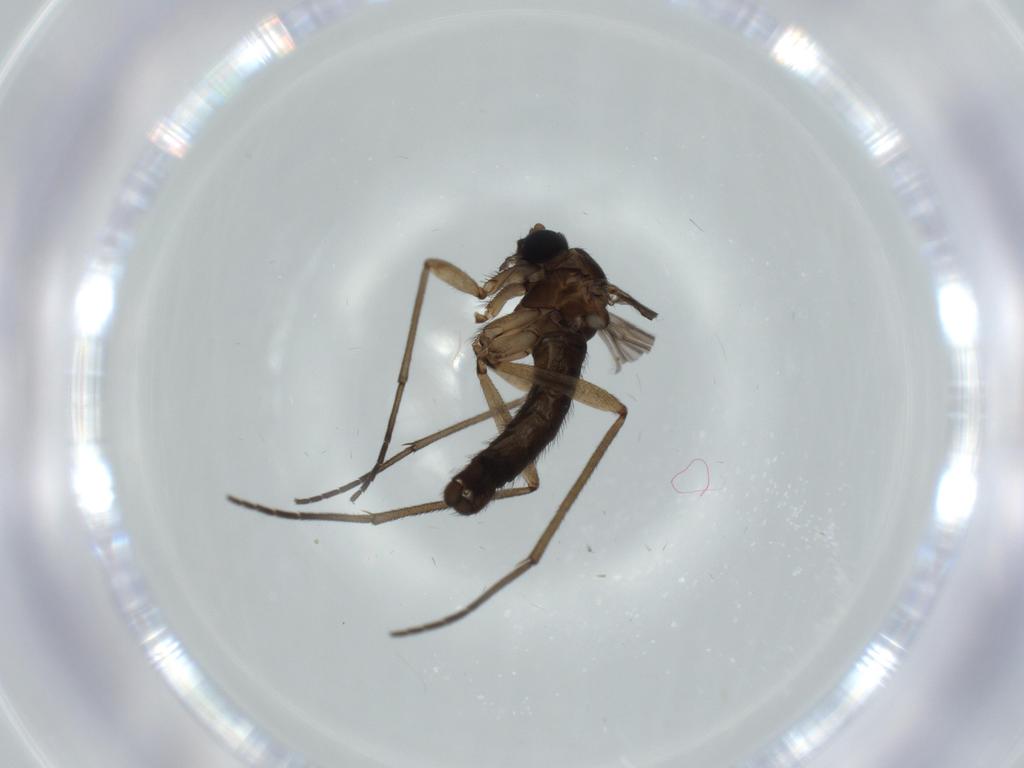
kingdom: Animalia
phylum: Arthropoda
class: Insecta
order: Diptera
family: Sciaridae
